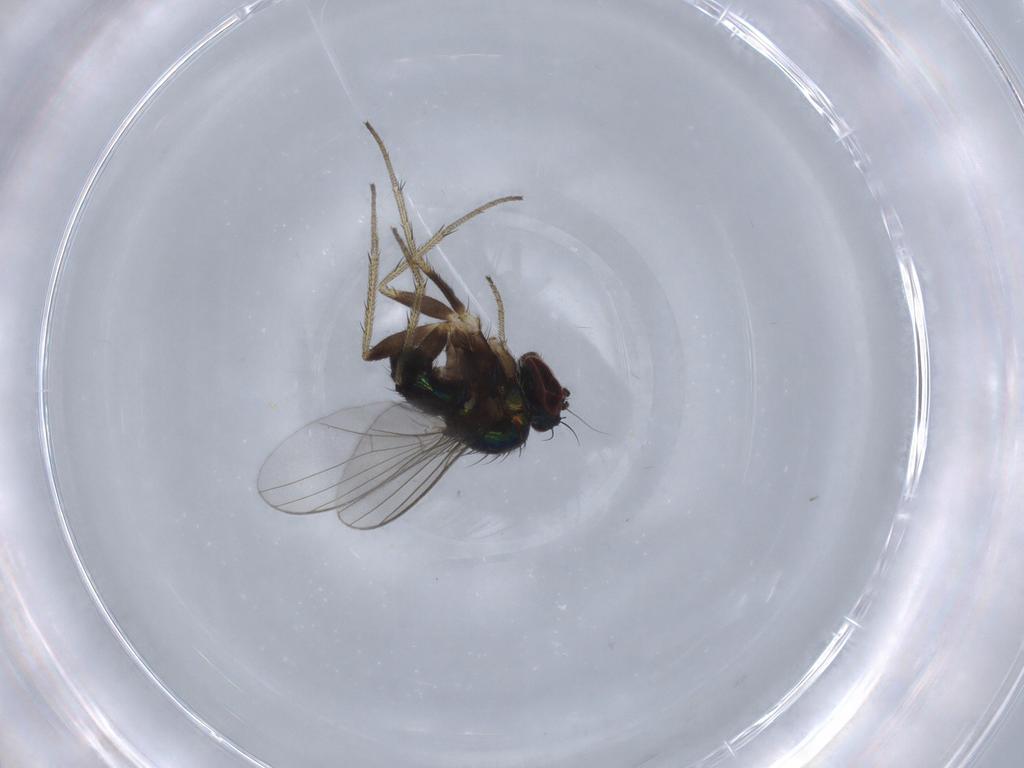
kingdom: Animalia
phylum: Arthropoda
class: Insecta
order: Diptera
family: Dolichopodidae
